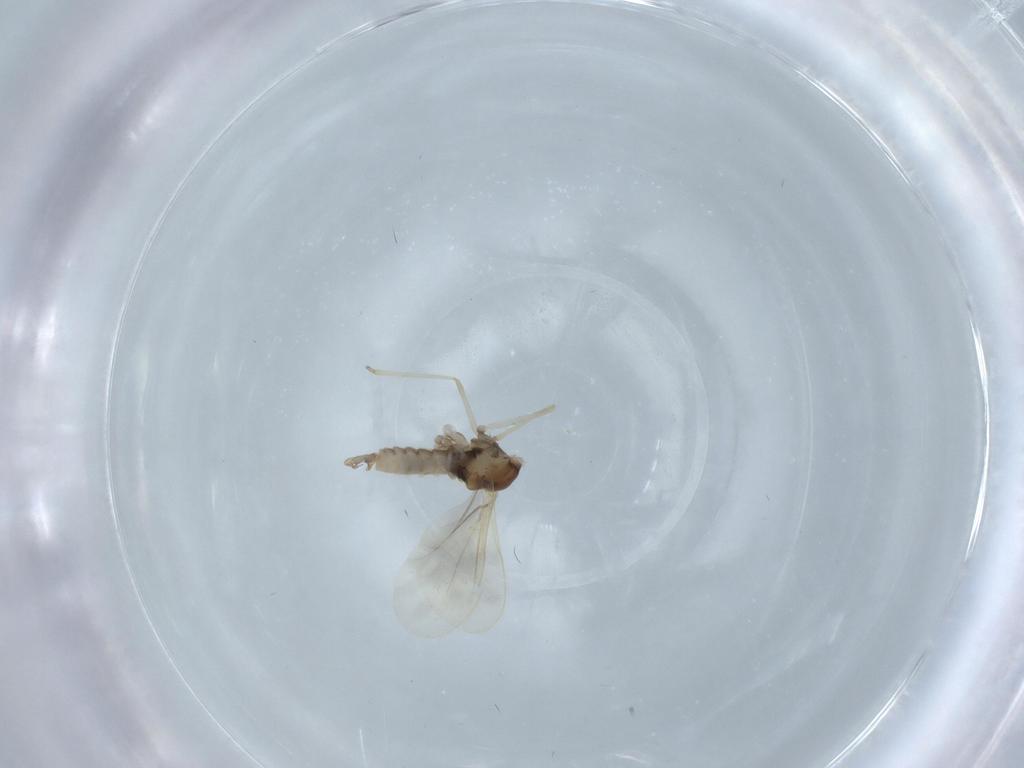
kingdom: Animalia
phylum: Arthropoda
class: Insecta
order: Diptera
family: Cecidomyiidae
